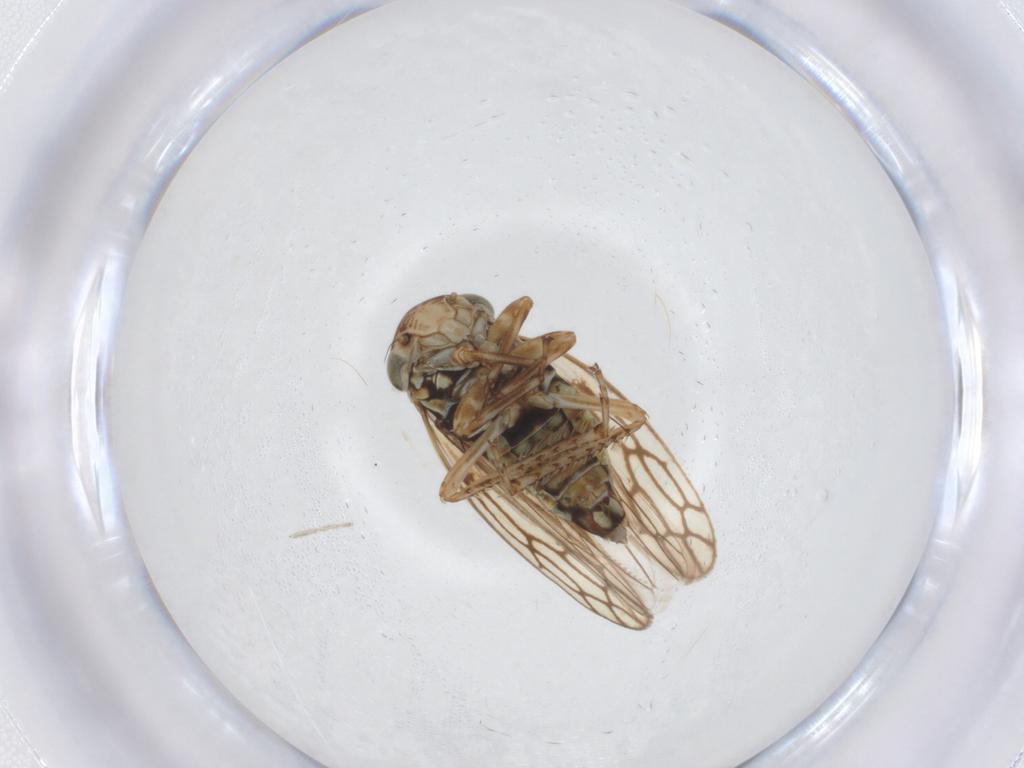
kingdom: Animalia
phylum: Arthropoda
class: Insecta
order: Hemiptera
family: Cicadellidae
